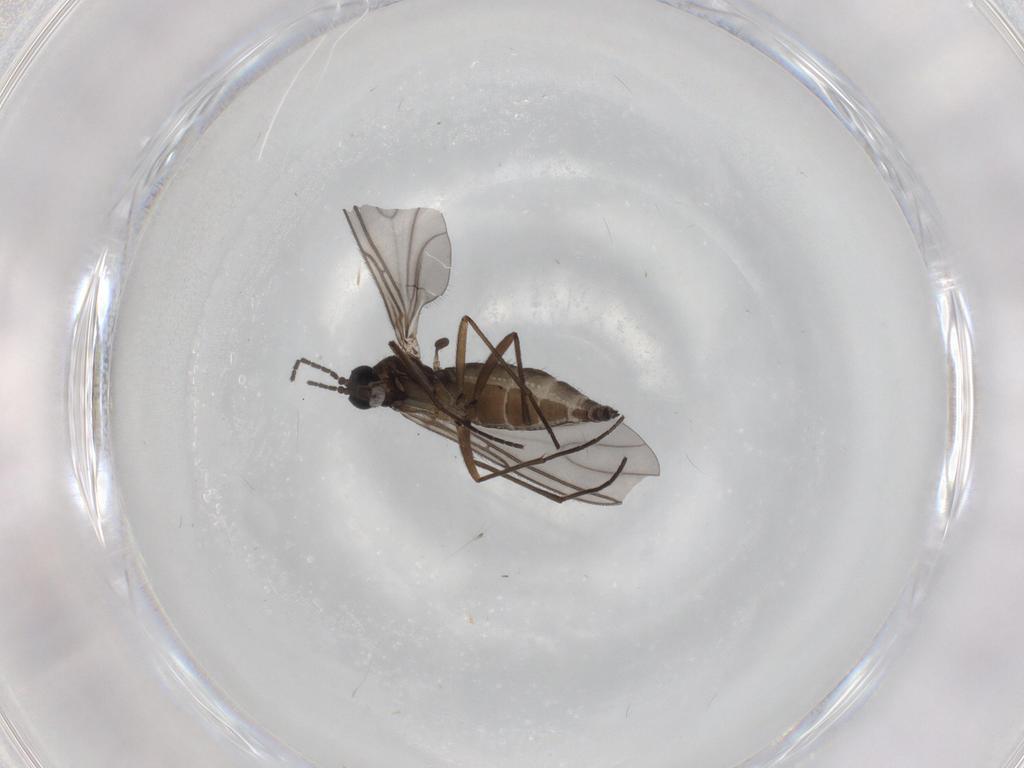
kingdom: Animalia
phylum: Arthropoda
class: Insecta
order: Diptera
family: Sciaridae
